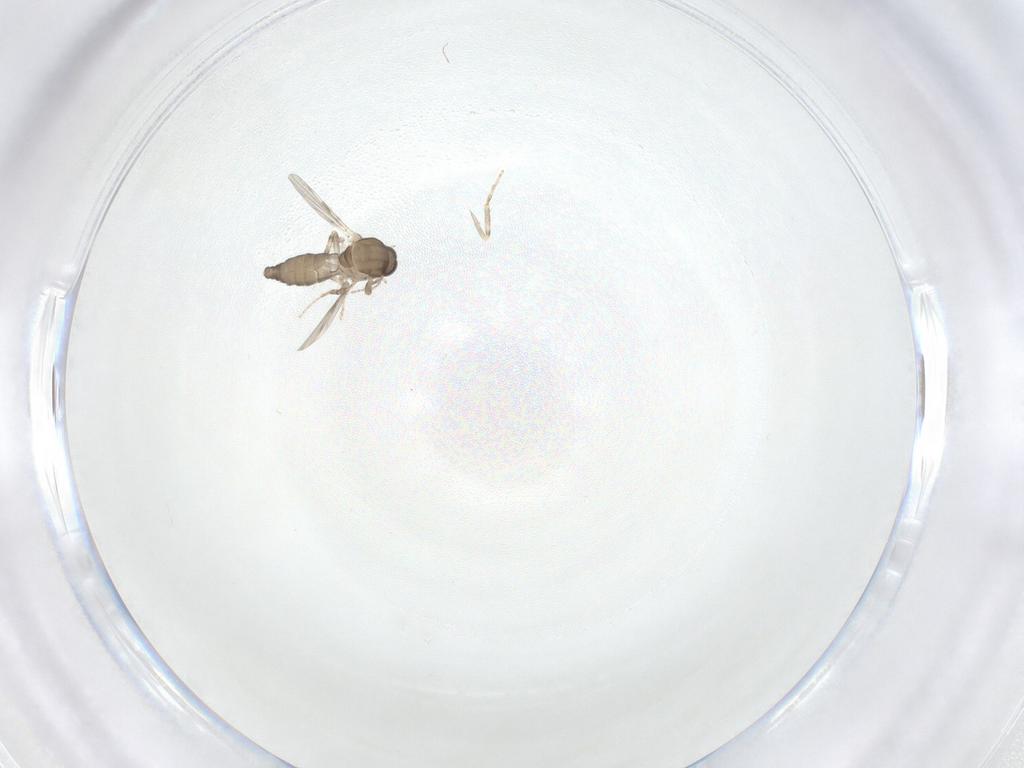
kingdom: Animalia
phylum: Arthropoda
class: Insecta
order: Diptera
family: Ceratopogonidae
